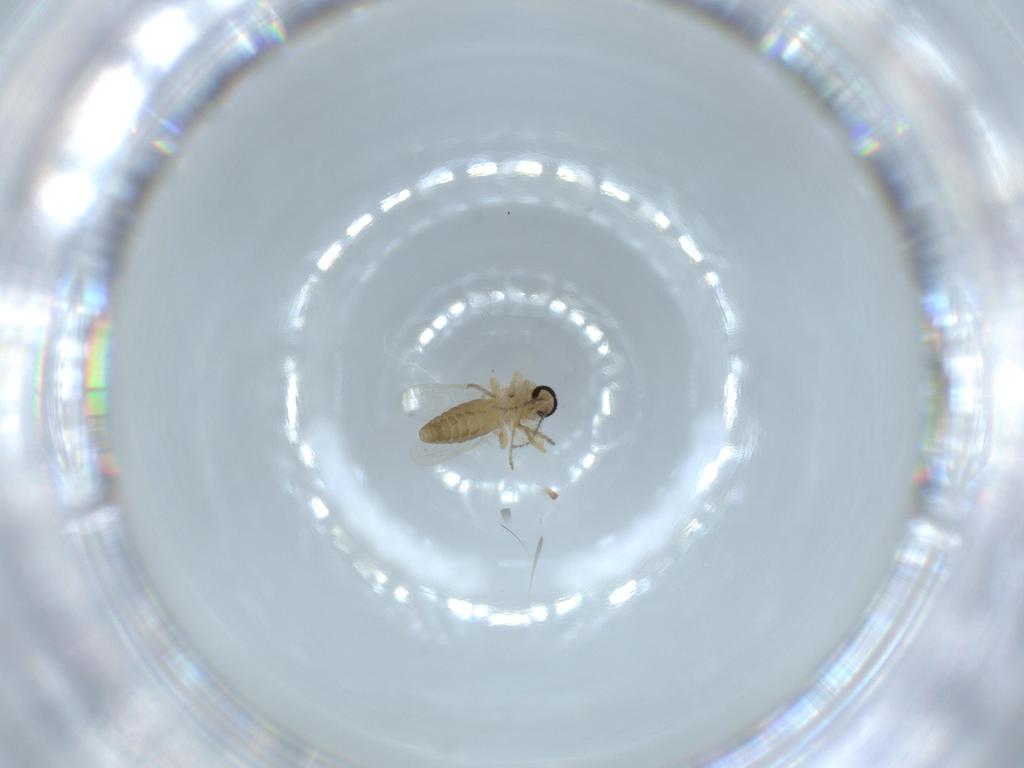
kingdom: Animalia
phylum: Arthropoda
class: Insecta
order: Diptera
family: Ceratopogonidae
